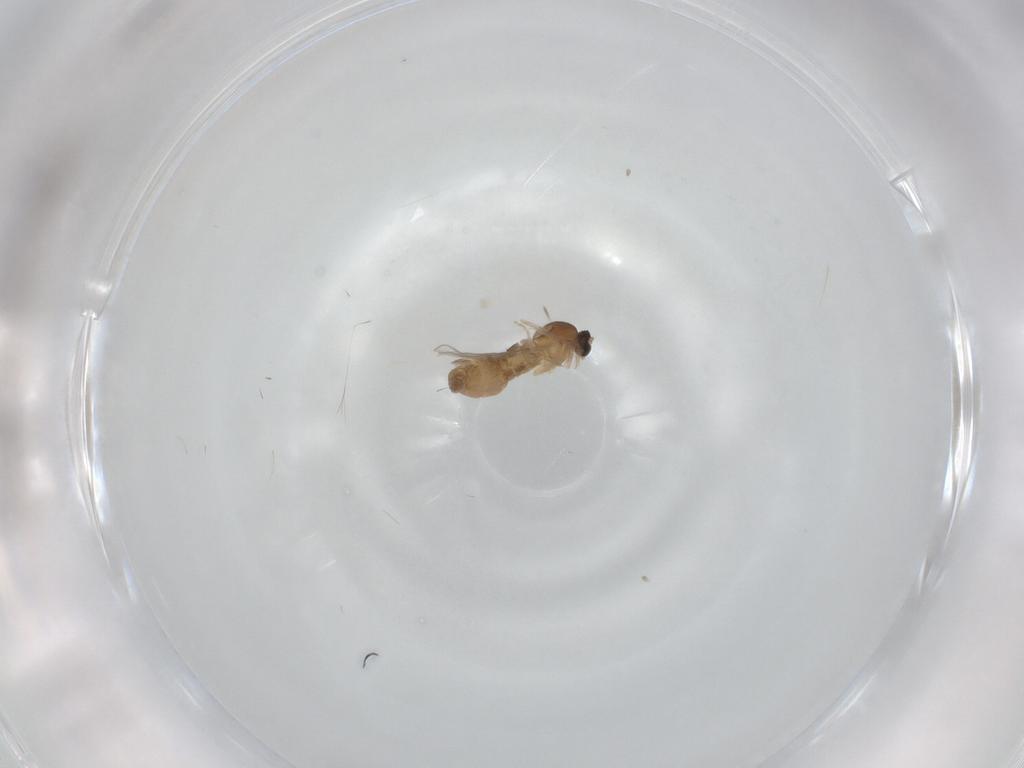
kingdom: Animalia
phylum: Arthropoda
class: Insecta
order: Diptera
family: Cecidomyiidae
